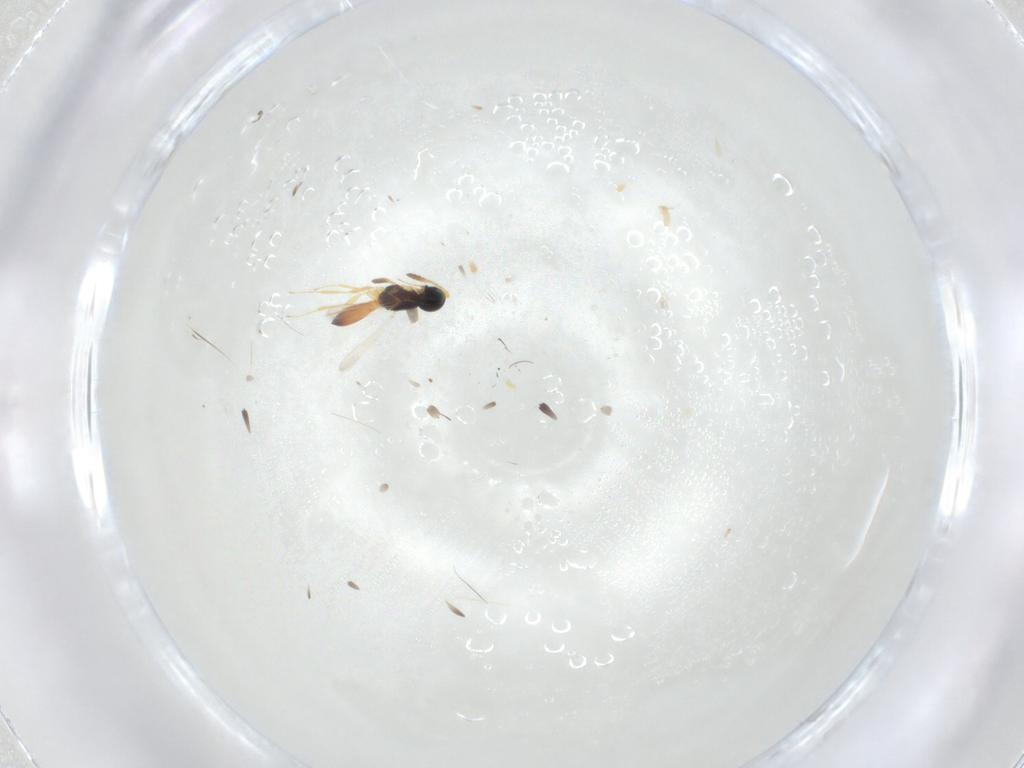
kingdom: Animalia
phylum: Arthropoda
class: Insecta
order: Hymenoptera
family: Scelionidae
